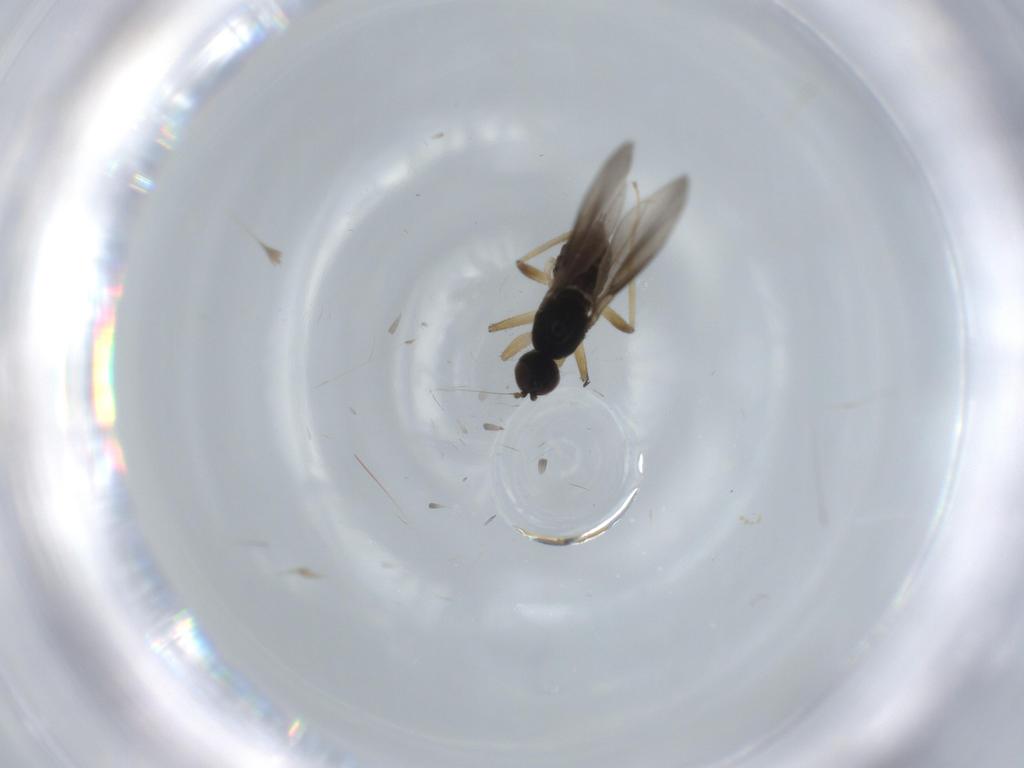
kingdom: Animalia
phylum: Arthropoda
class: Insecta
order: Diptera
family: Hybotidae
